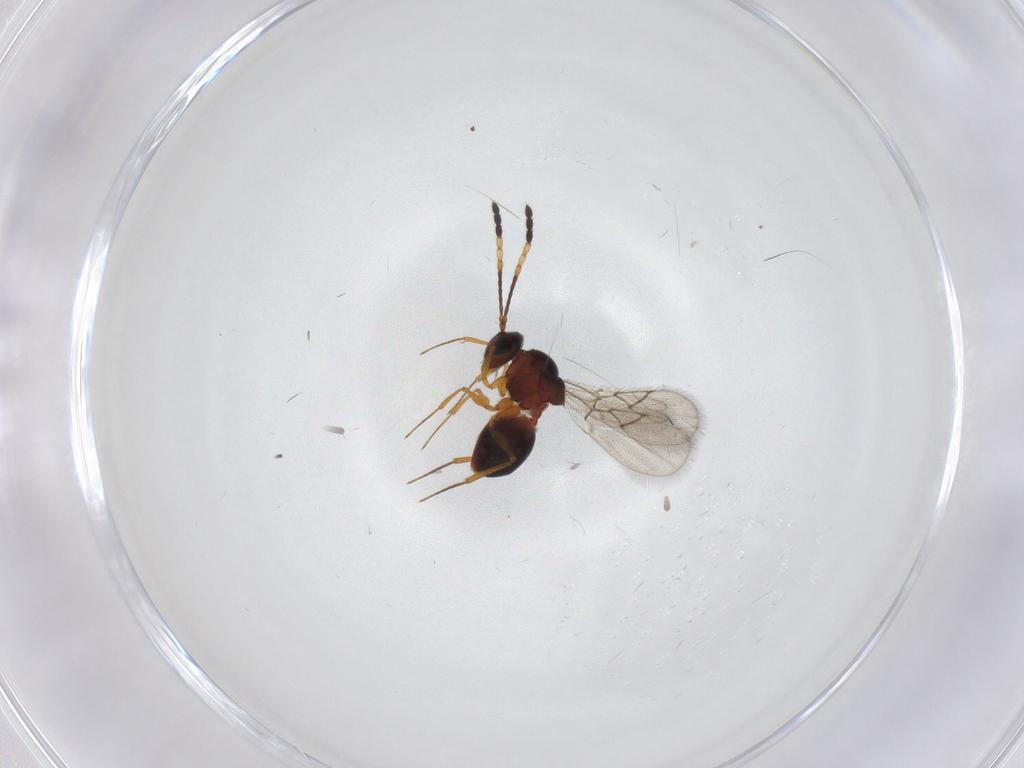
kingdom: Animalia
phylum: Arthropoda
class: Insecta
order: Hymenoptera
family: Figitidae
